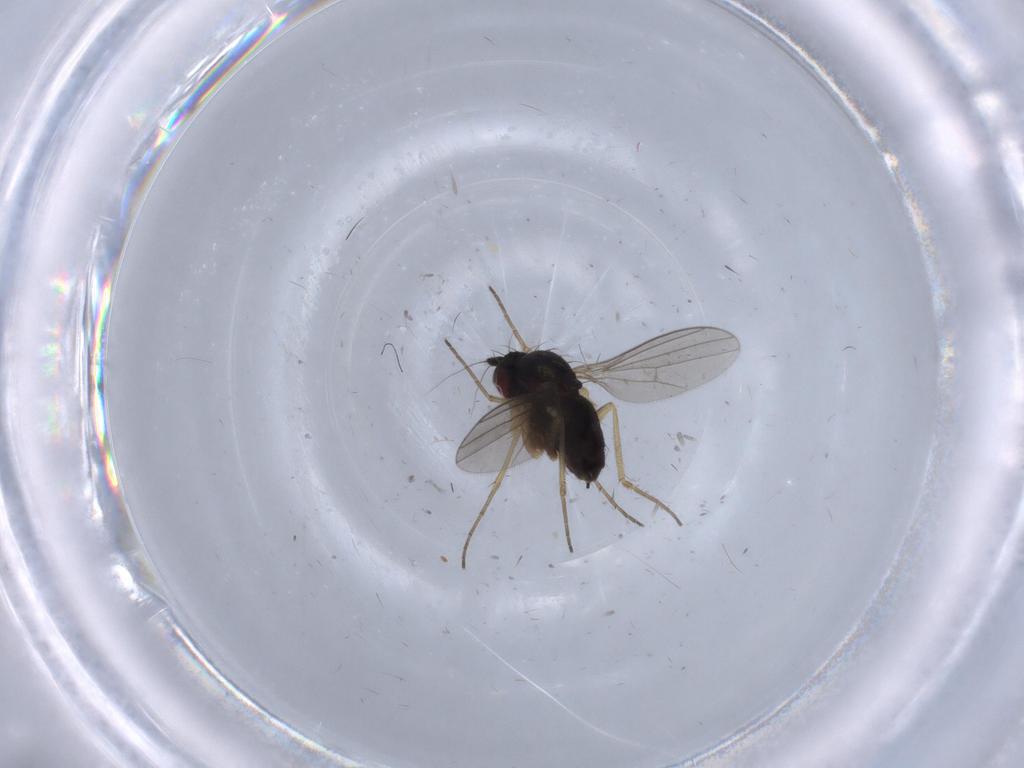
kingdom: Animalia
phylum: Arthropoda
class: Insecta
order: Diptera
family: Dolichopodidae
